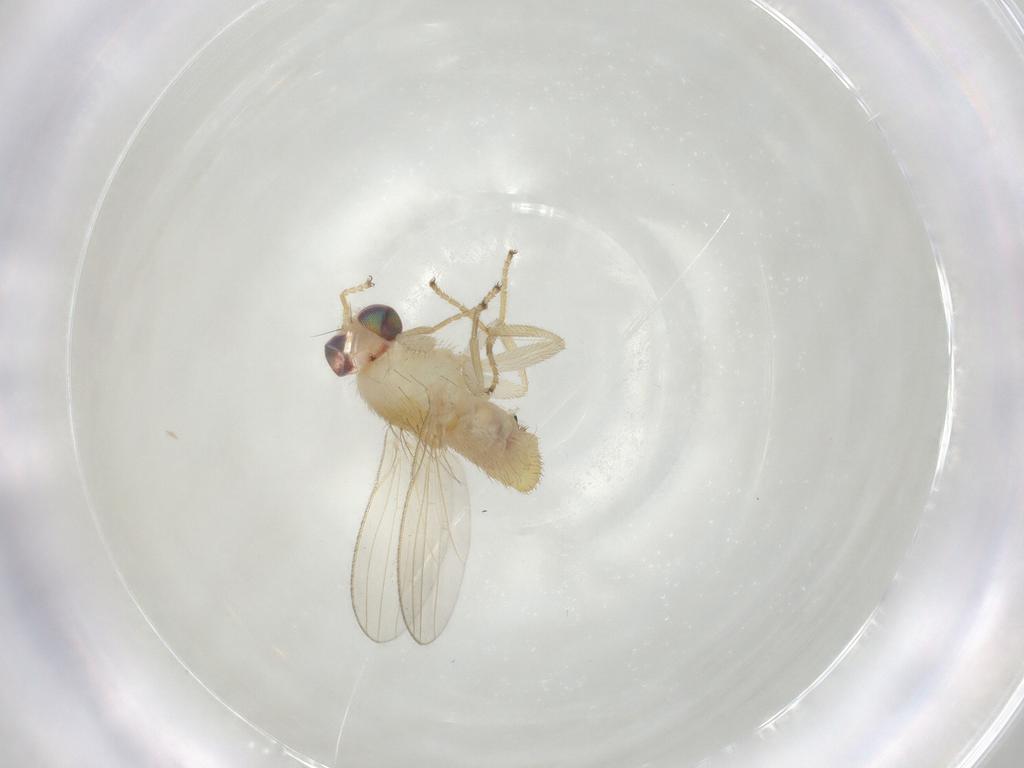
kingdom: Animalia
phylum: Arthropoda
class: Insecta
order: Diptera
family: Chyromyidae
